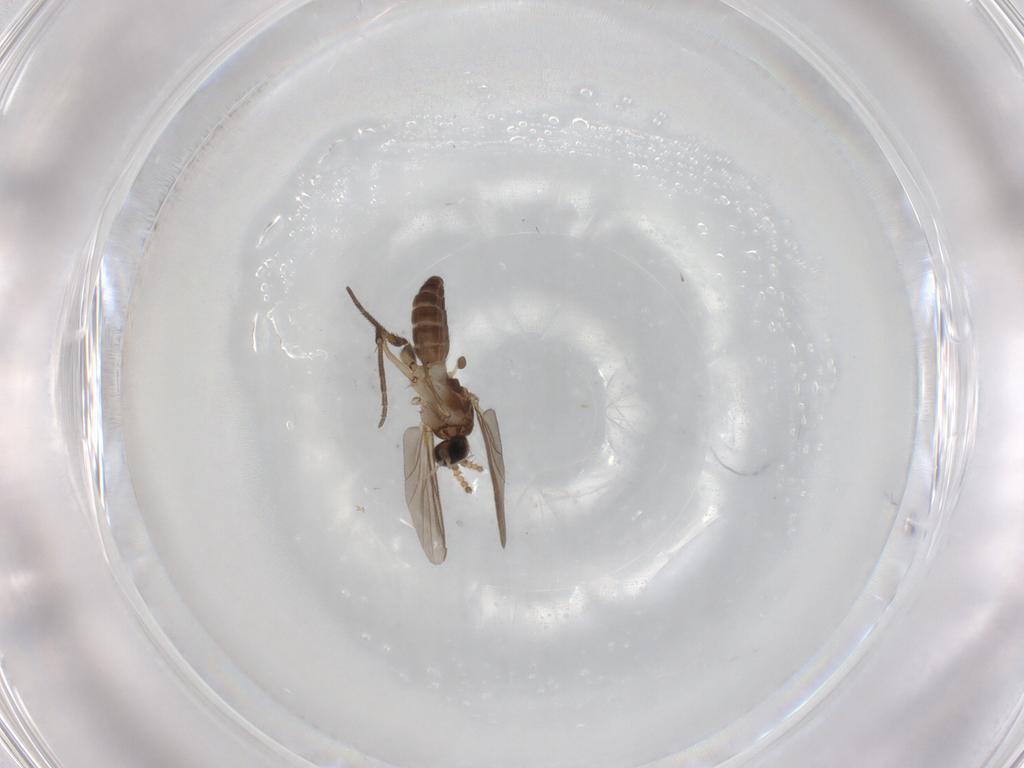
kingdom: Animalia
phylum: Arthropoda
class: Insecta
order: Diptera
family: Mycetophilidae
